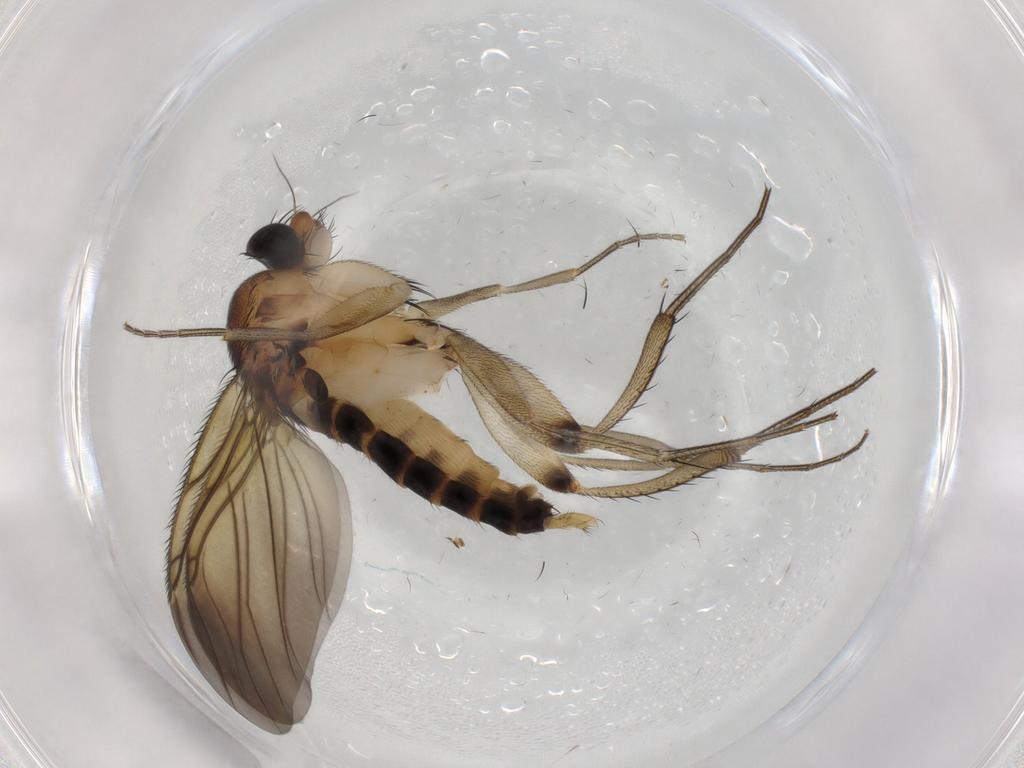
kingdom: Animalia
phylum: Arthropoda
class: Insecta
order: Diptera
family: Phoridae
